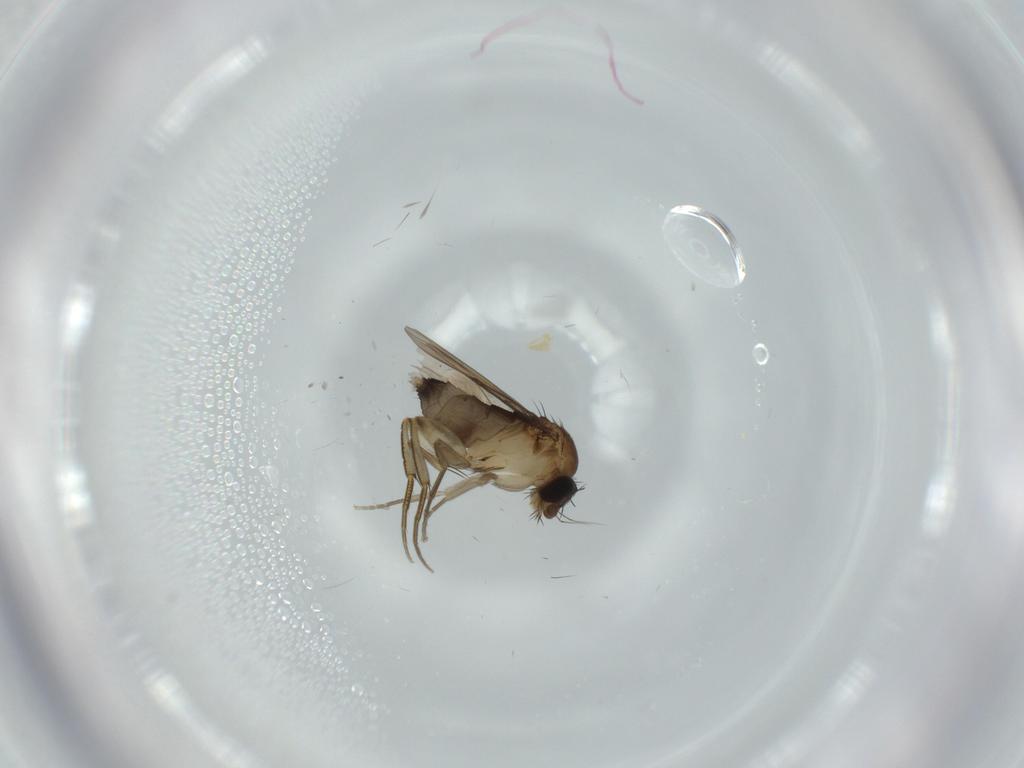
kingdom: Animalia
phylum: Arthropoda
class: Insecta
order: Diptera
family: Phoridae
